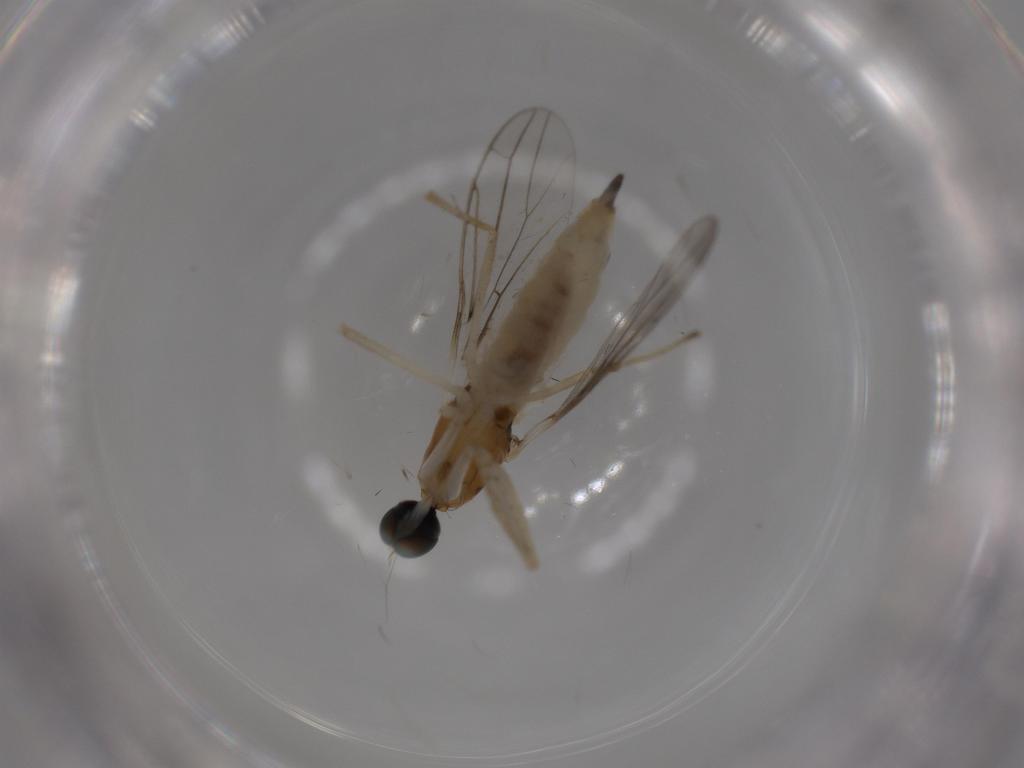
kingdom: Animalia
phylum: Arthropoda
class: Insecta
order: Diptera
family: Empididae
